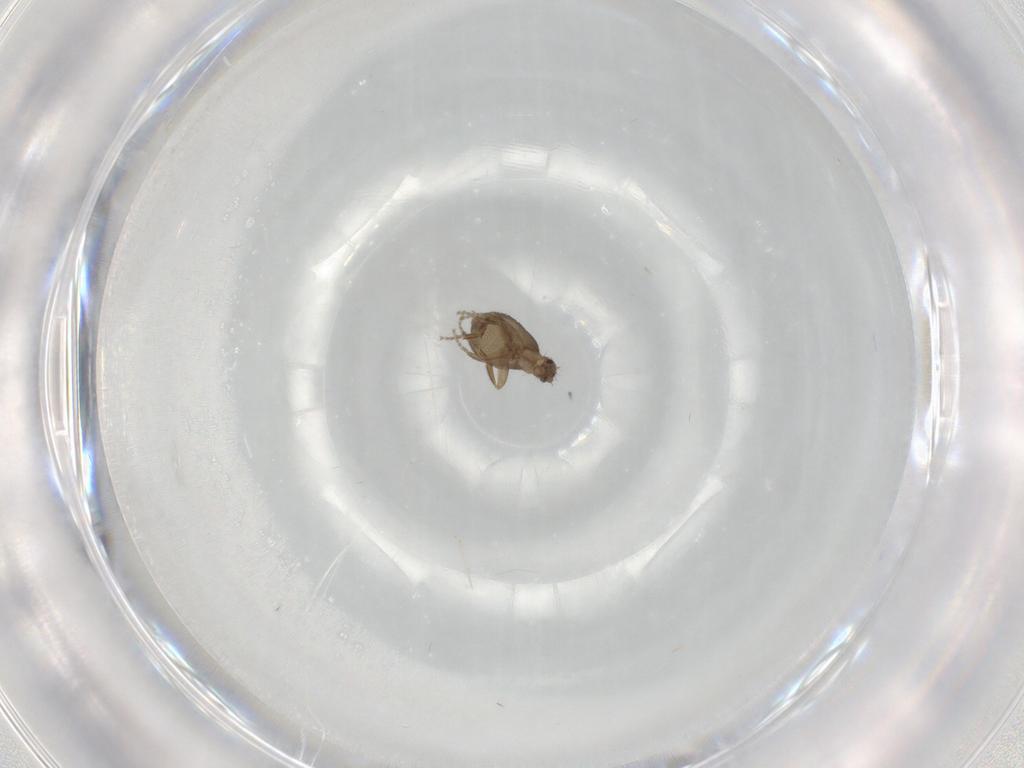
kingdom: Animalia
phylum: Arthropoda
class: Insecta
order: Diptera
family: Phoridae
